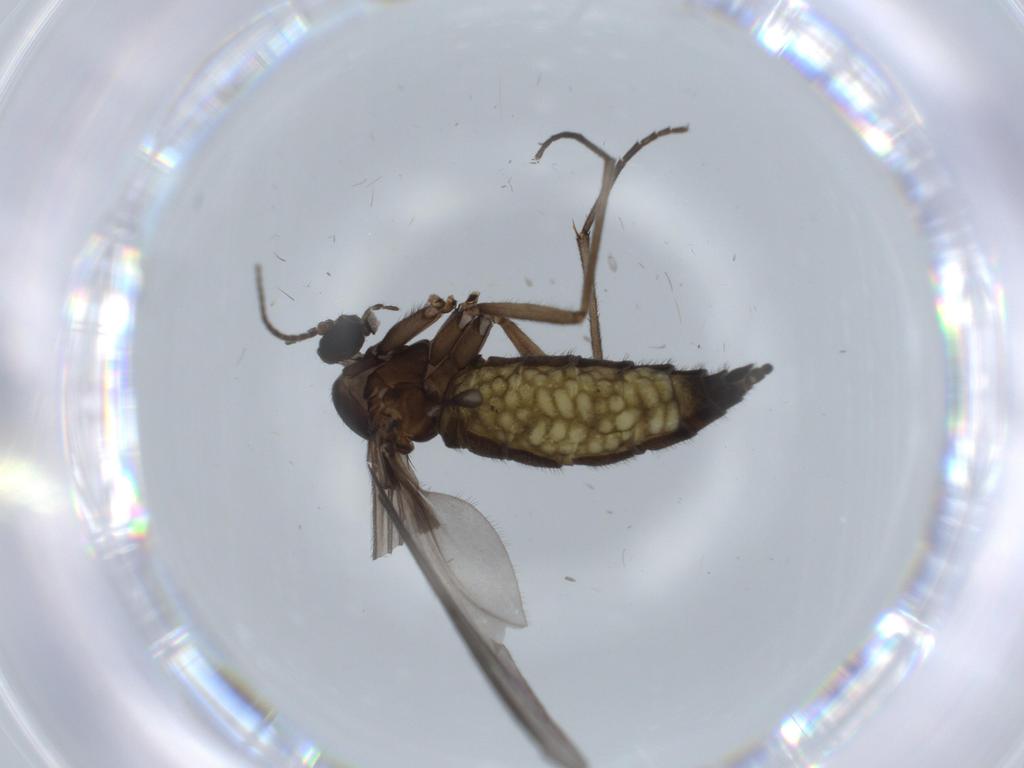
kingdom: Animalia
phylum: Arthropoda
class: Insecta
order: Diptera
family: Sciaridae
